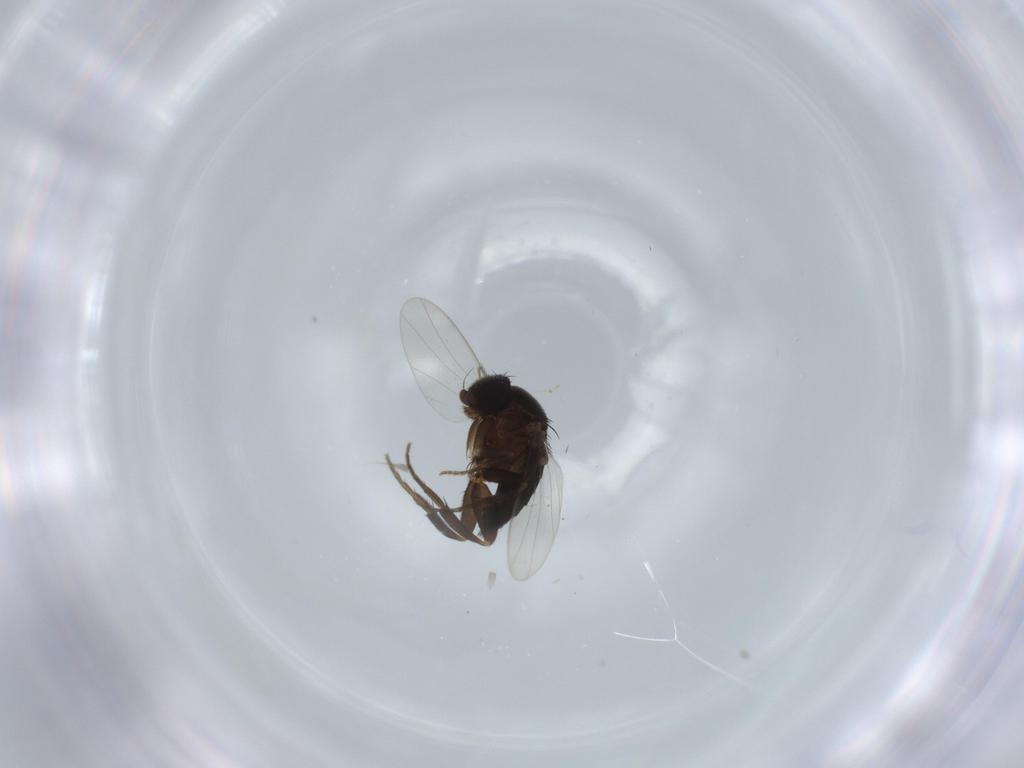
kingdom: Animalia
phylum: Arthropoda
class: Insecta
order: Diptera
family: Phoridae
